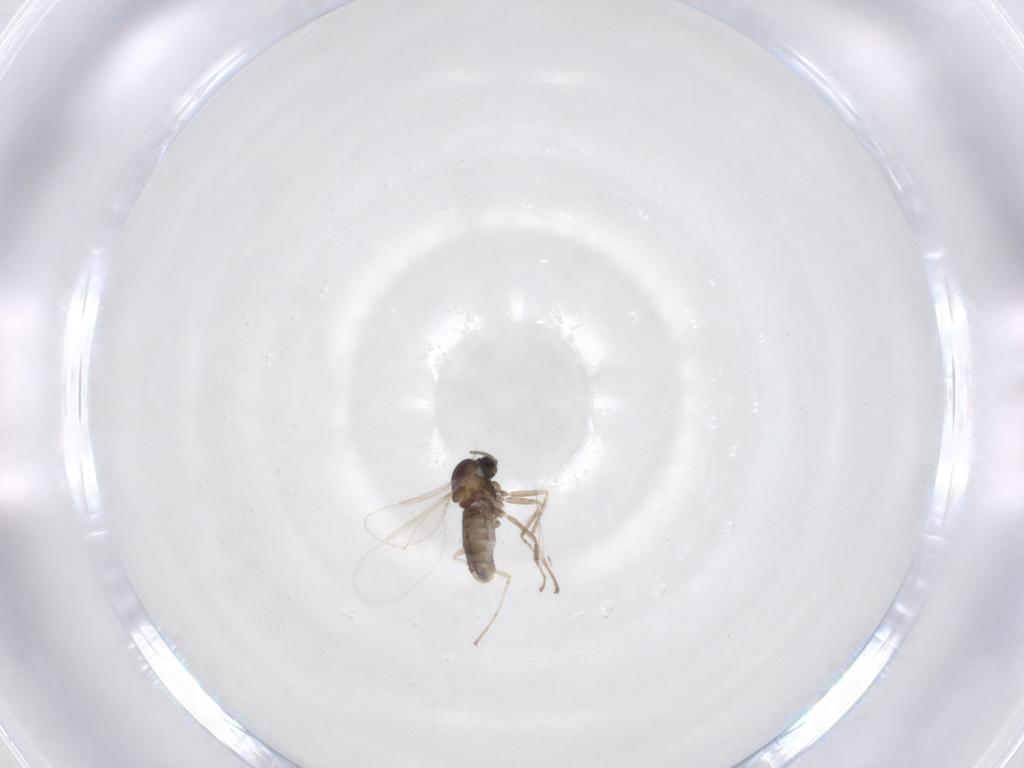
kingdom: Animalia
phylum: Arthropoda
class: Insecta
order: Diptera
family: Cecidomyiidae
